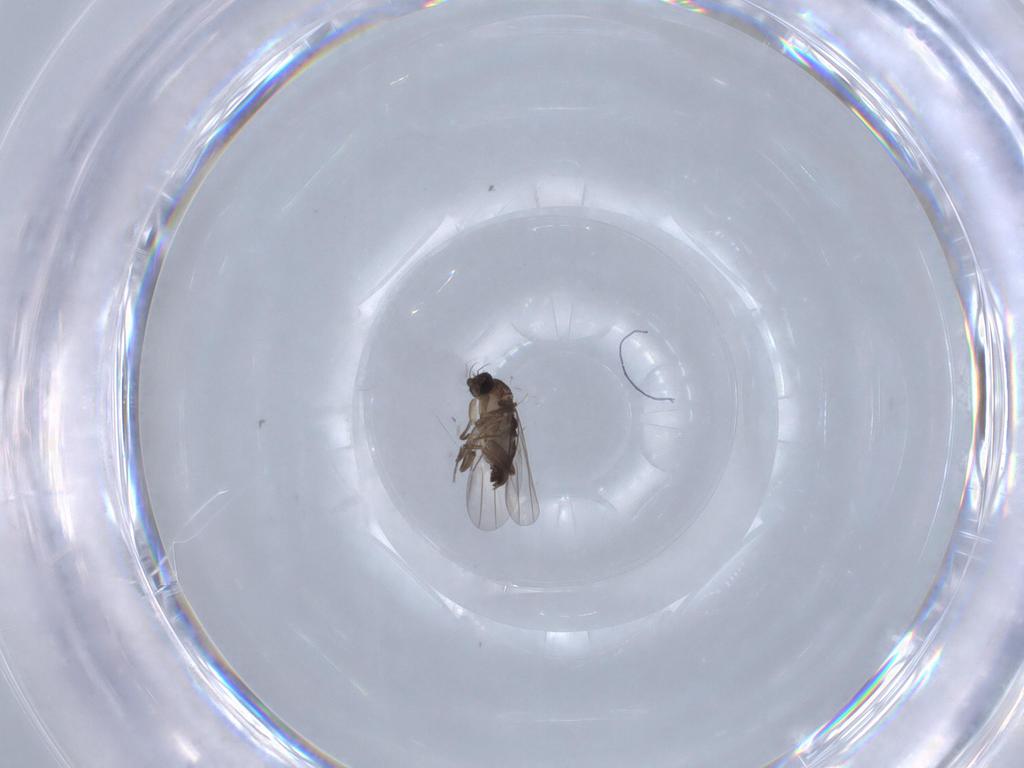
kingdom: Animalia
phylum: Arthropoda
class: Insecta
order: Diptera
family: Phoridae
